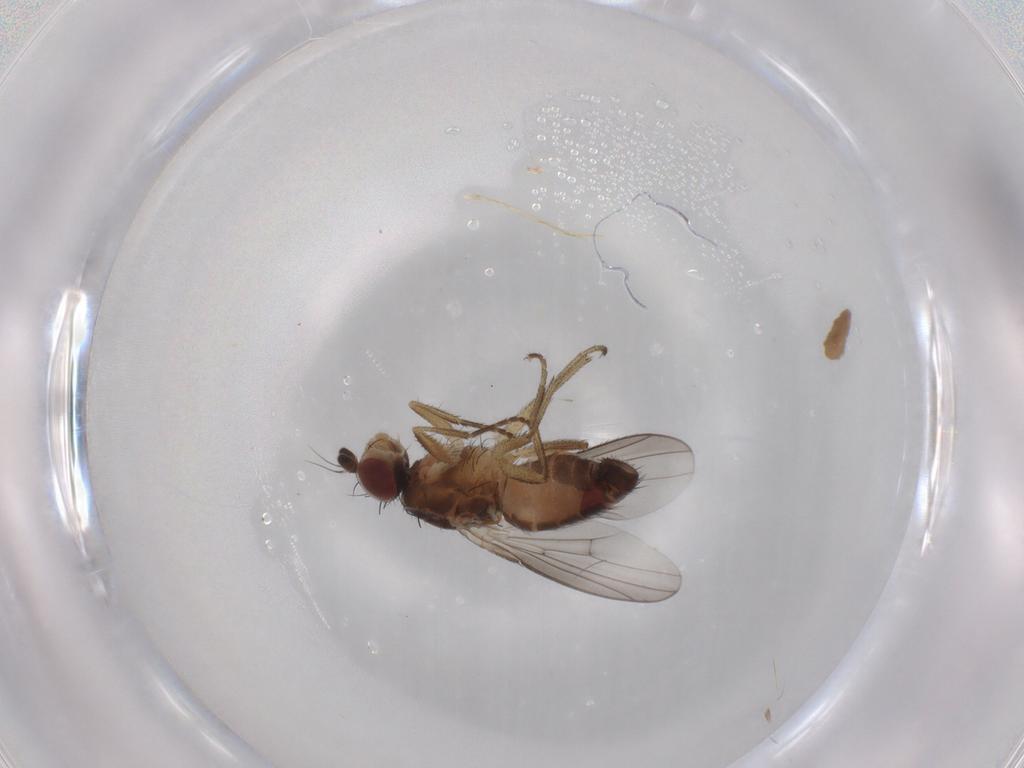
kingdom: Animalia
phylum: Arthropoda
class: Insecta
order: Diptera
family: Heleomyzidae
